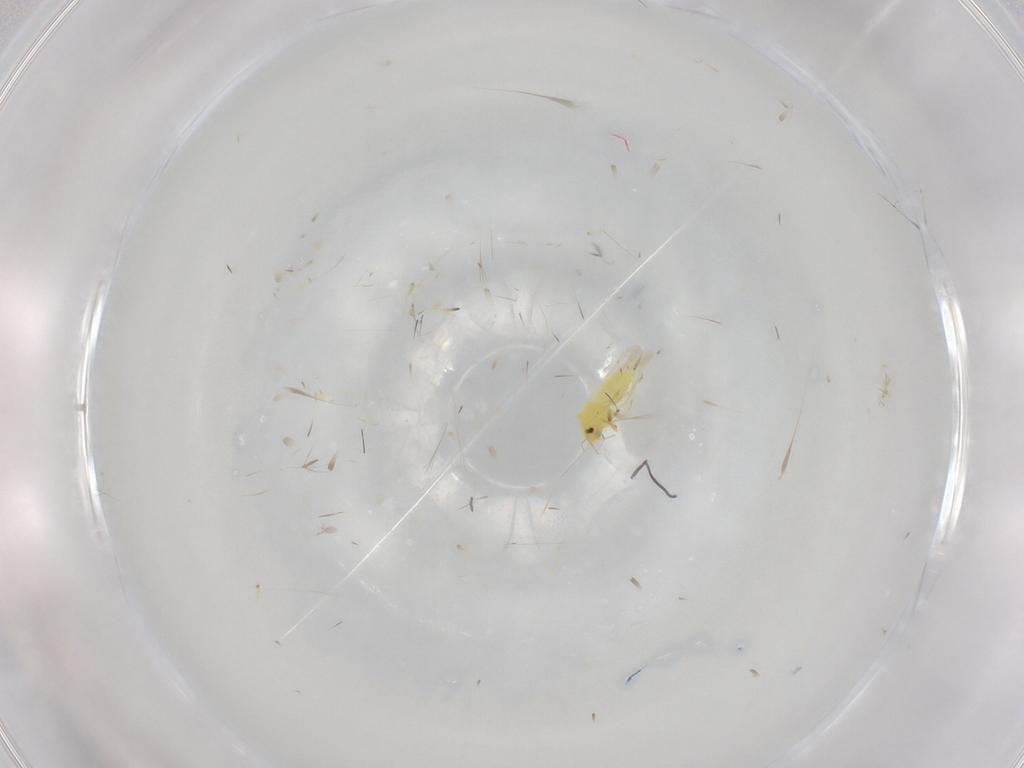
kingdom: Animalia
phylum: Arthropoda
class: Insecta
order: Hemiptera
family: Aleyrodidae
